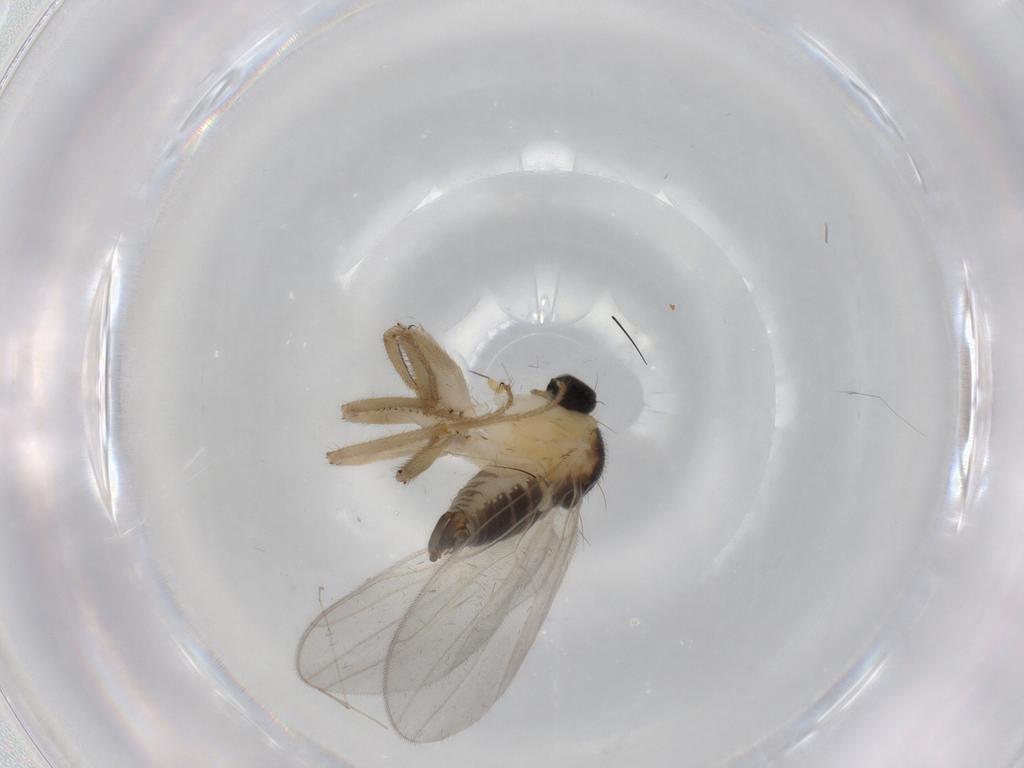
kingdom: Animalia
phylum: Arthropoda
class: Insecta
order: Diptera
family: Hybotidae
